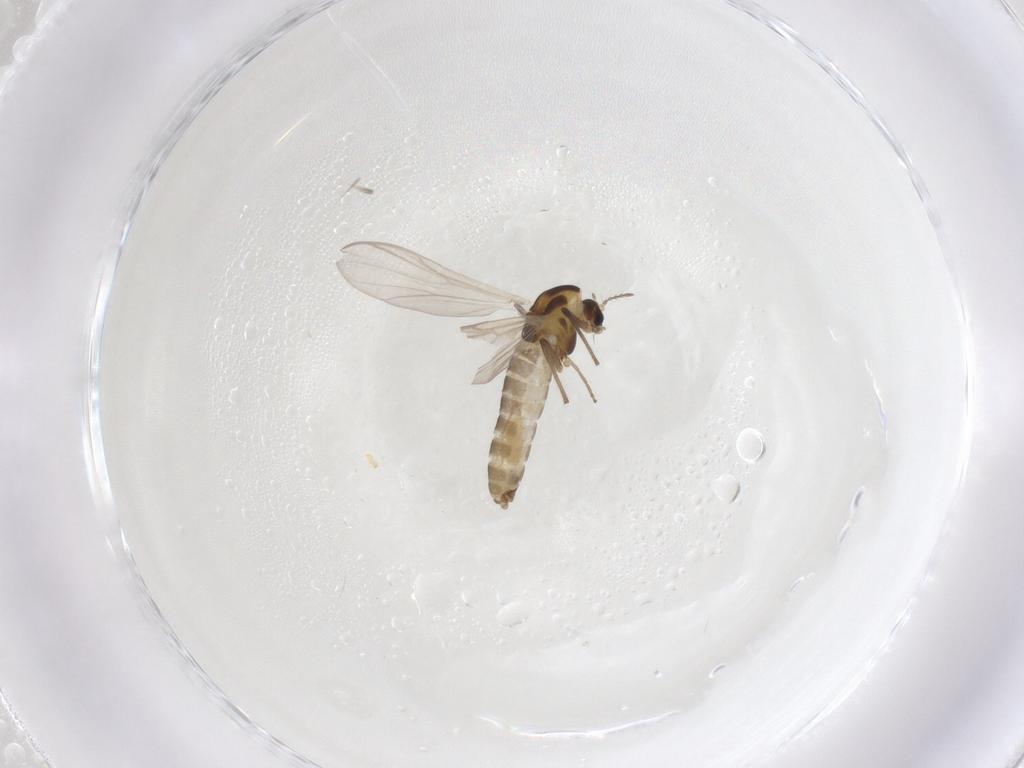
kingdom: Animalia
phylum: Arthropoda
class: Insecta
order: Diptera
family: Chironomidae
